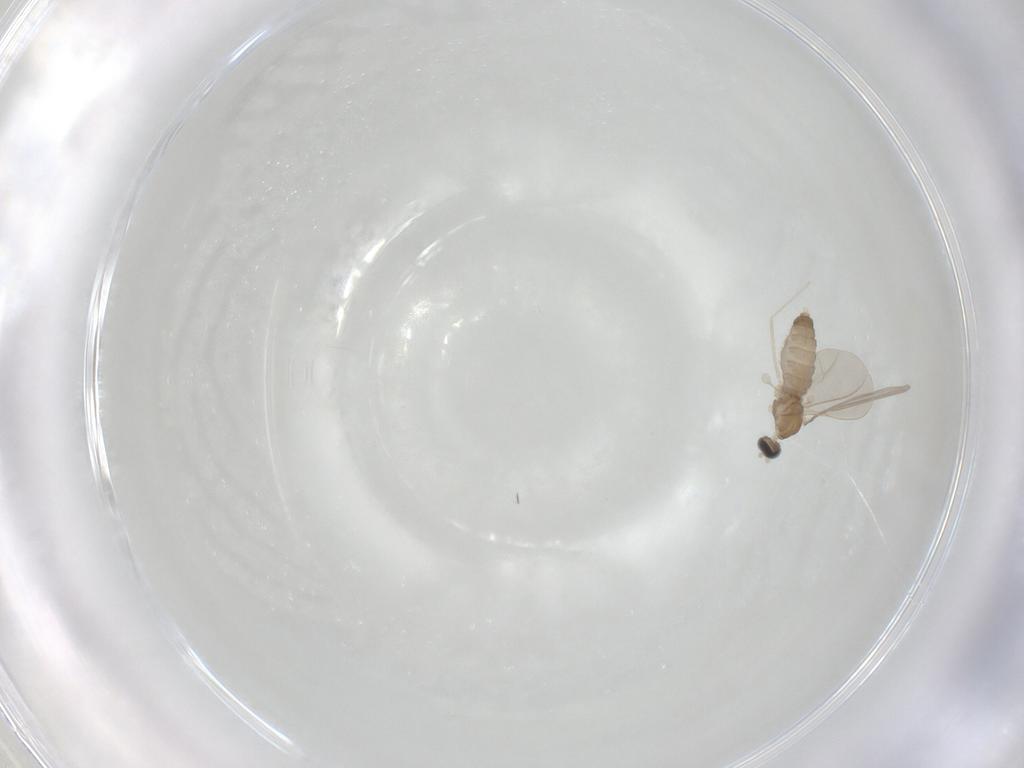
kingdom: Animalia
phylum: Arthropoda
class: Insecta
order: Diptera
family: Cecidomyiidae
